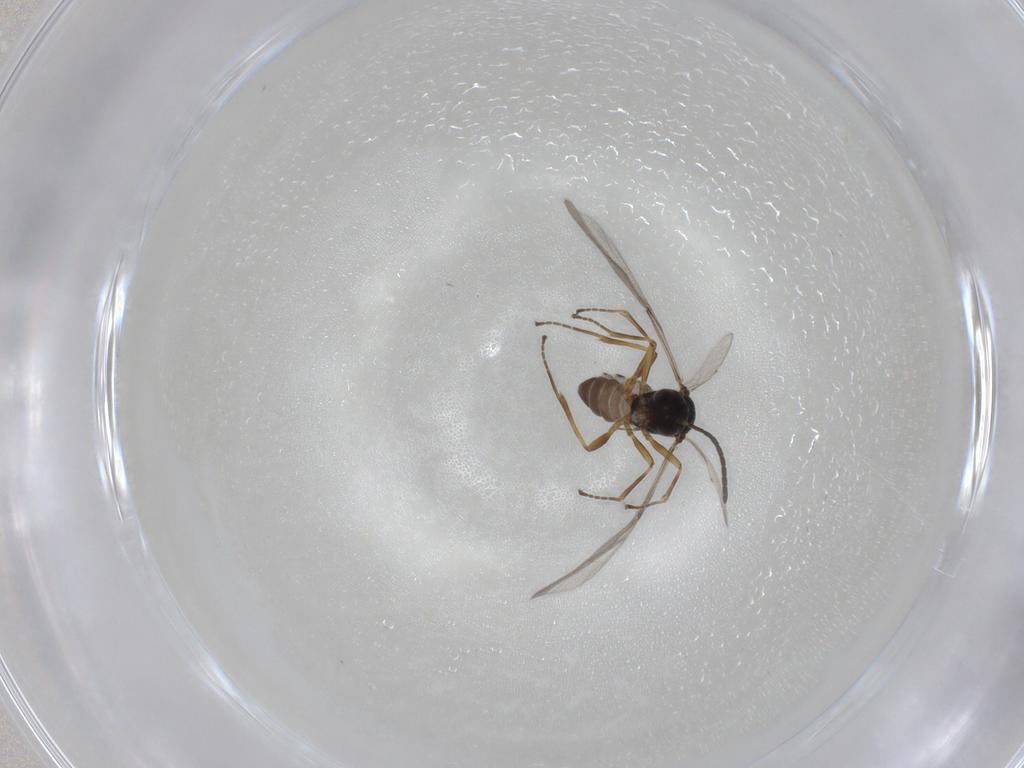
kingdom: Animalia
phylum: Arthropoda
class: Insecta
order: Hymenoptera
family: Braconidae
